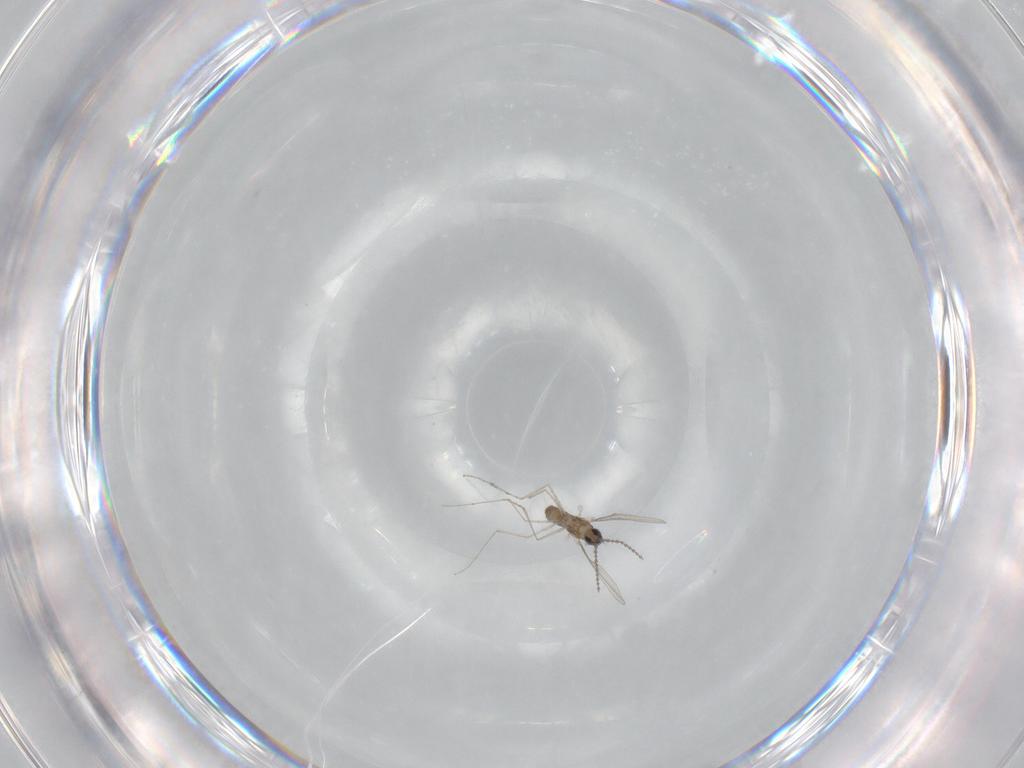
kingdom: Animalia
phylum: Arthropoda
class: Insecta
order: Diptera
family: Cecidomyiidae
